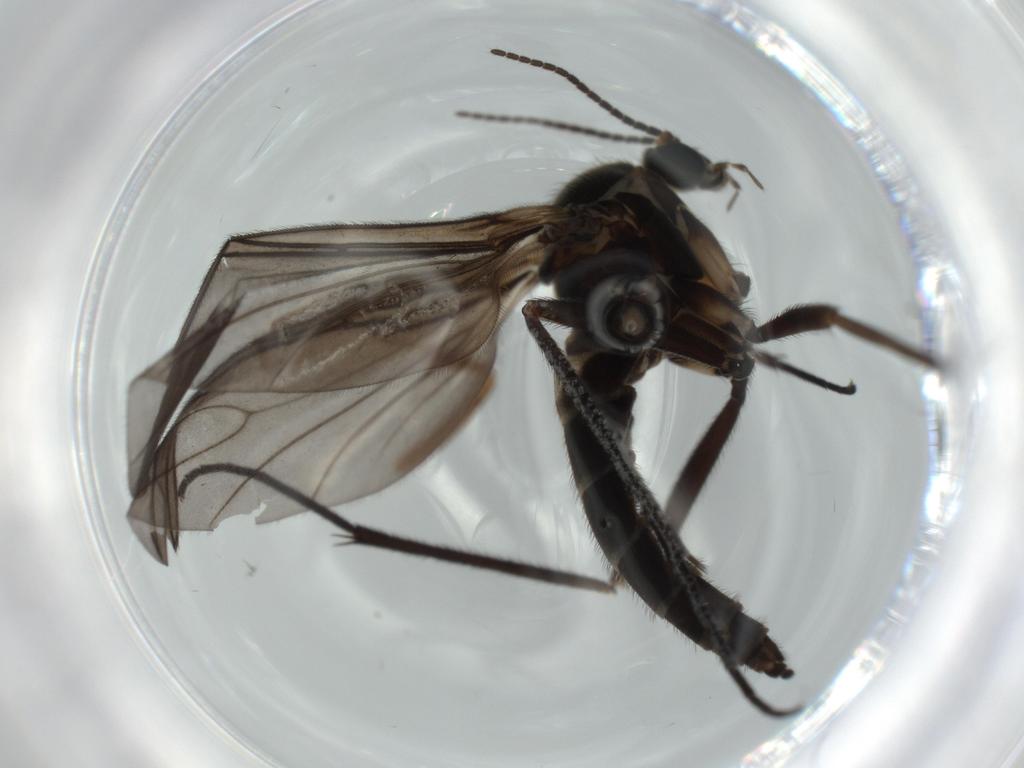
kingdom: Animalia
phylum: Arthropoda
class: Insecta
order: Diptera
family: Sciaridae
